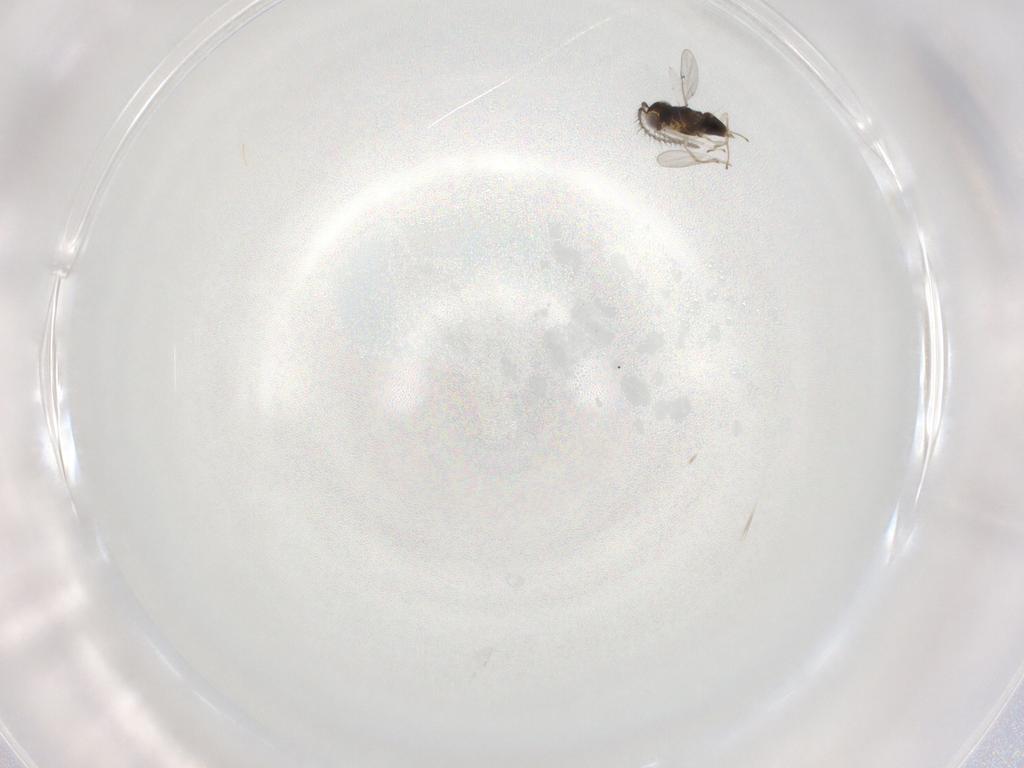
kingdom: Animalia
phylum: Arthropoda
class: Insecta
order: Hymenoptera
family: Encyrtidae
